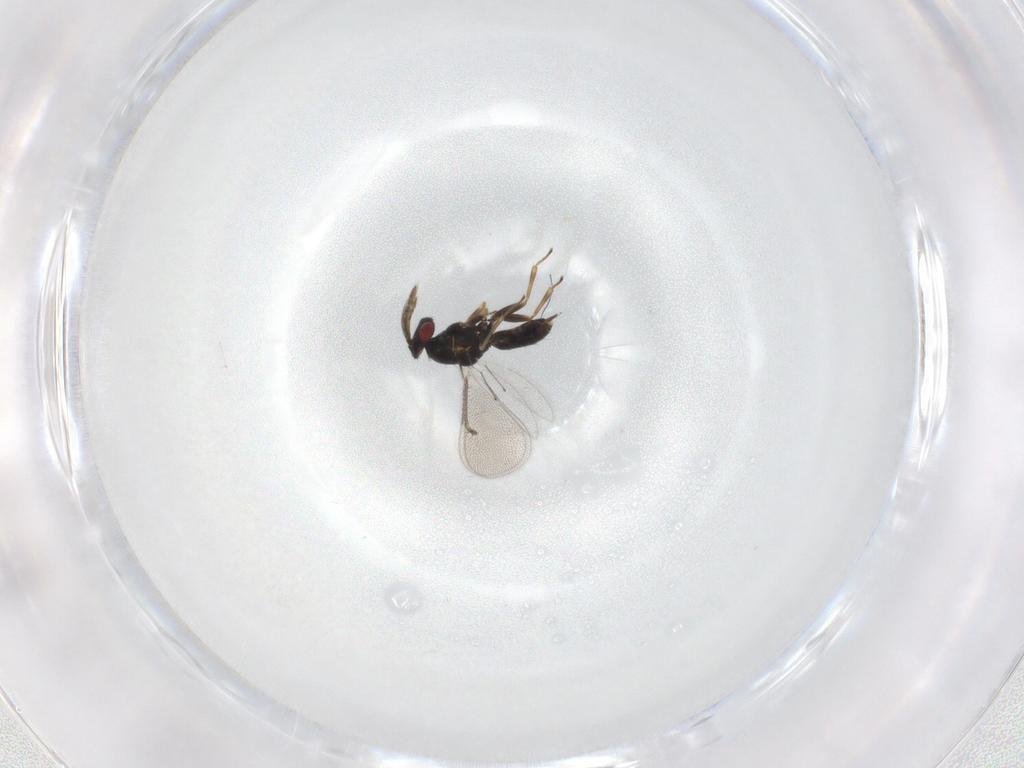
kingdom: Animalia
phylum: Arthropoda
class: Insecta
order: Hymenoptera
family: Eulophidae
